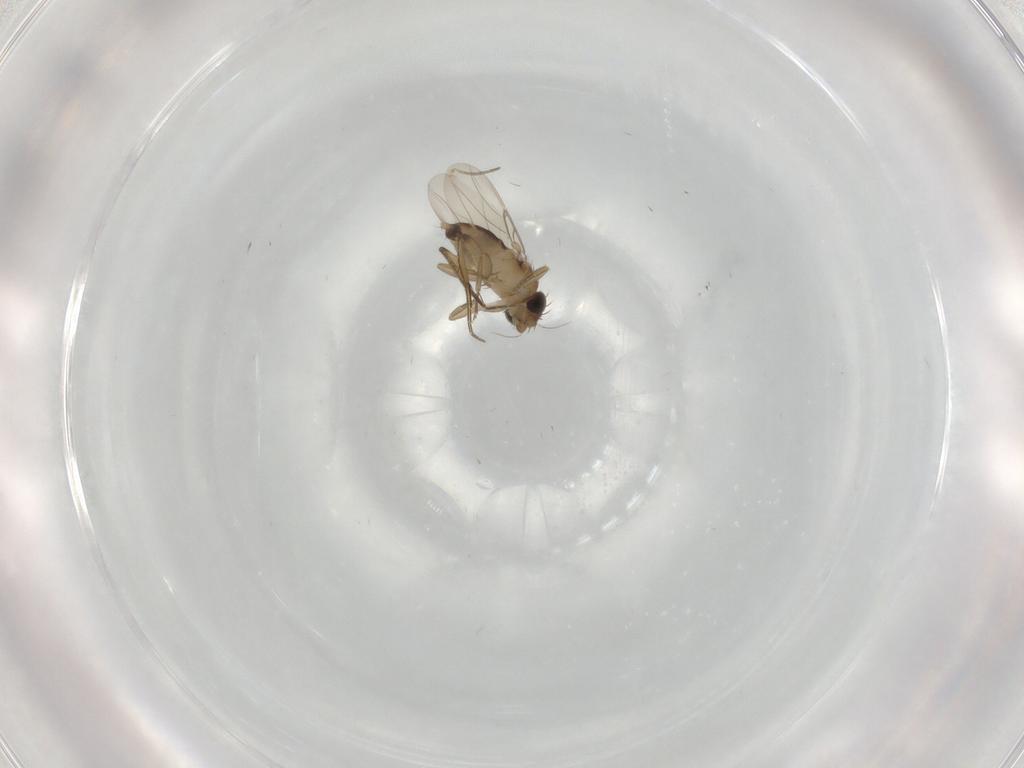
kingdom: Animalia
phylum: Arthropoda
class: Insecta
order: Diptera
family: Phoridae
